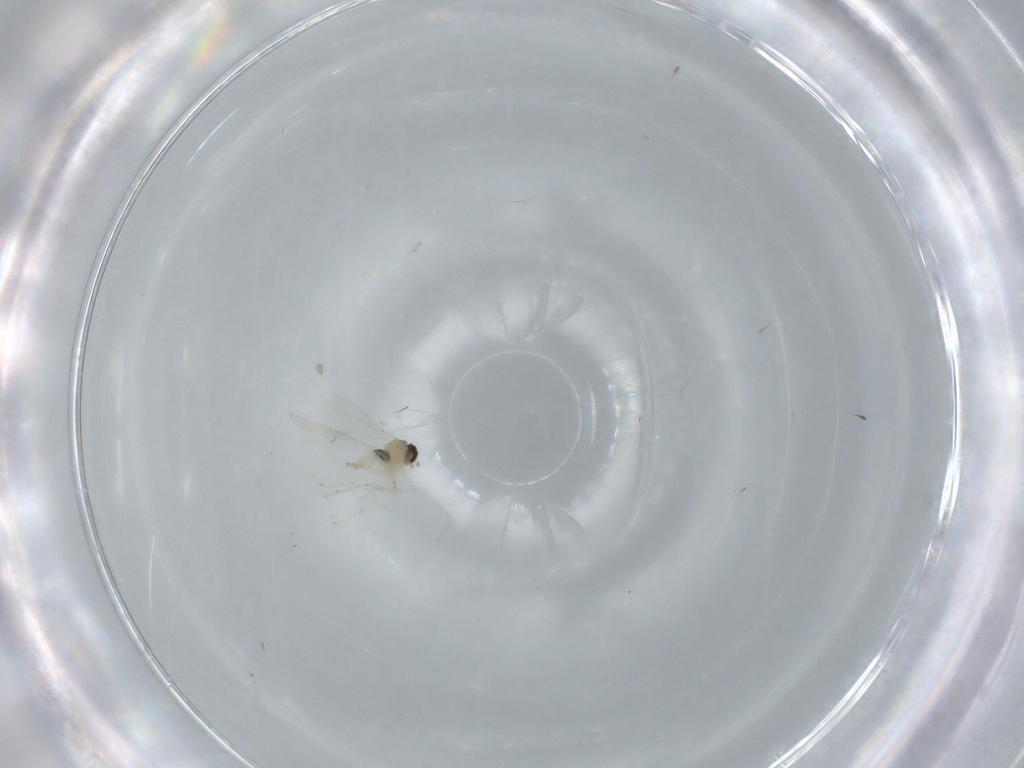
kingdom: Animalia
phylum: Arthropoda
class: Insecta
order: Diptera
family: Cecidomyiidae
